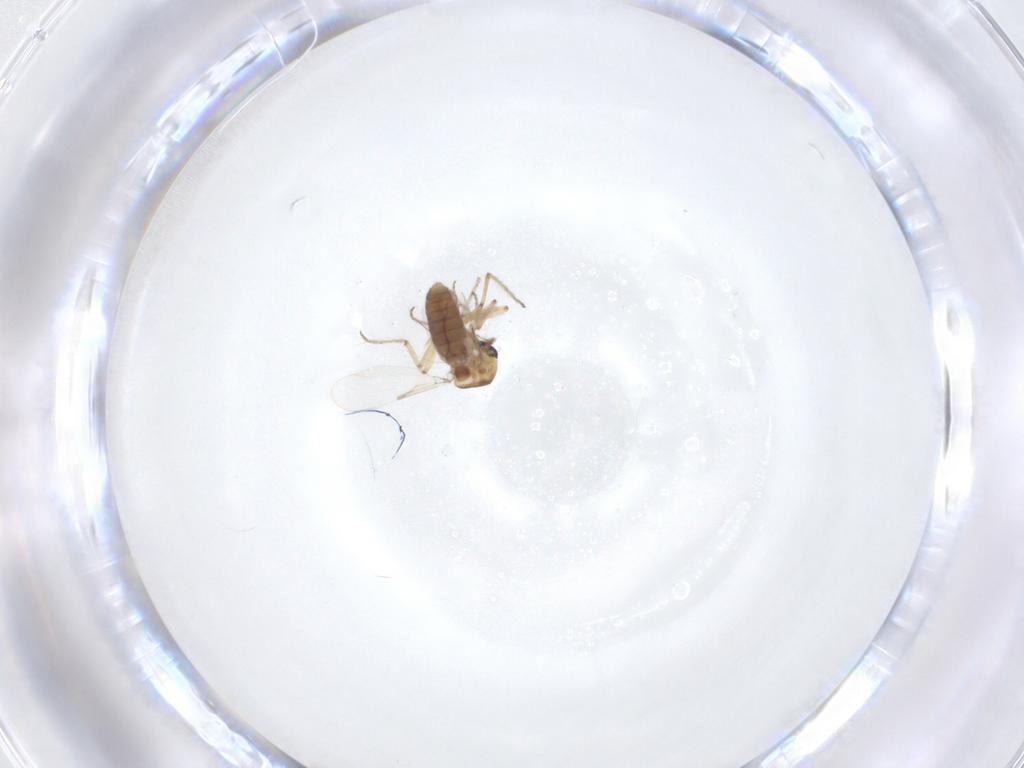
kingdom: Animalia
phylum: Arthropoda
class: Insecta
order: Diptera
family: Ceratopogonidae
